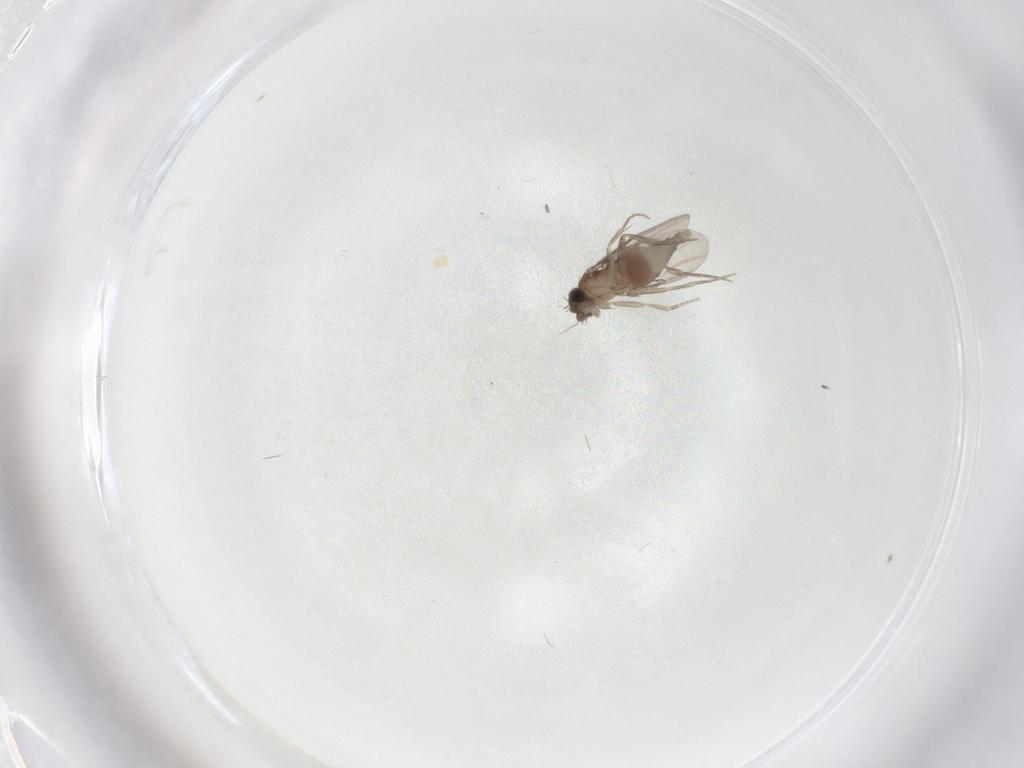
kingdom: Animalia
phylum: Arthropoda
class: Insecta
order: Diptera
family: Phoridae
